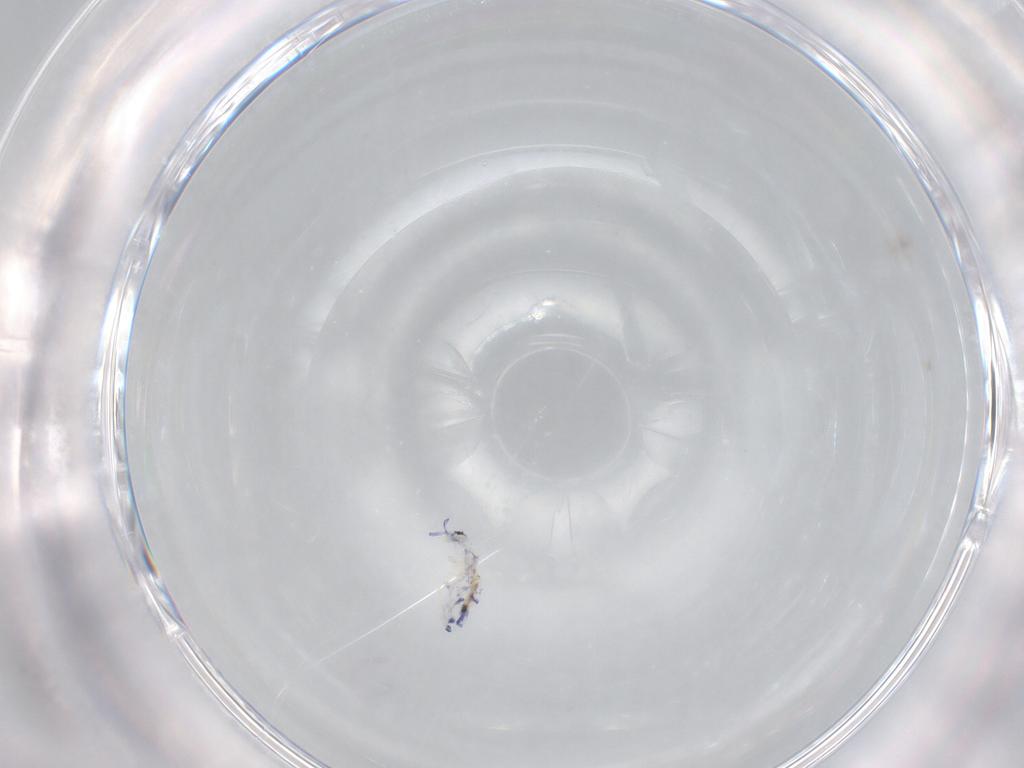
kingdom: Animalia
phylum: Arthropoda
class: Collembola
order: Entomobryomorpha
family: Entomobryidae
